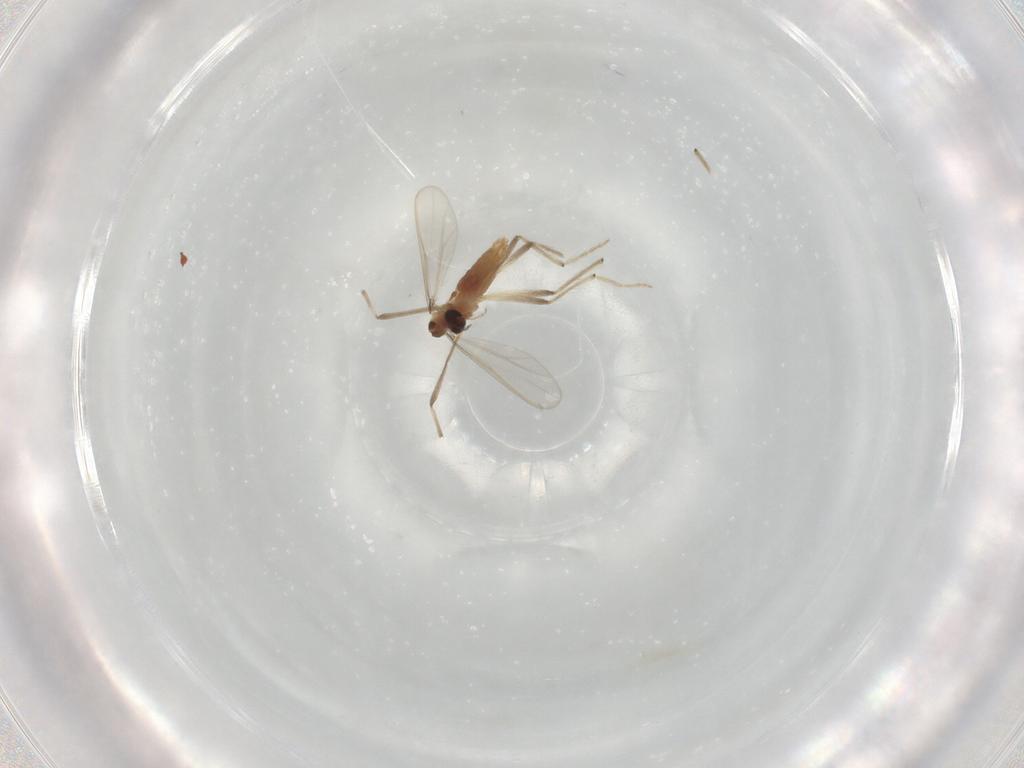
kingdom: Animalia
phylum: Arthropoda
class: Insecta
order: Diptera
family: Chironomidae
